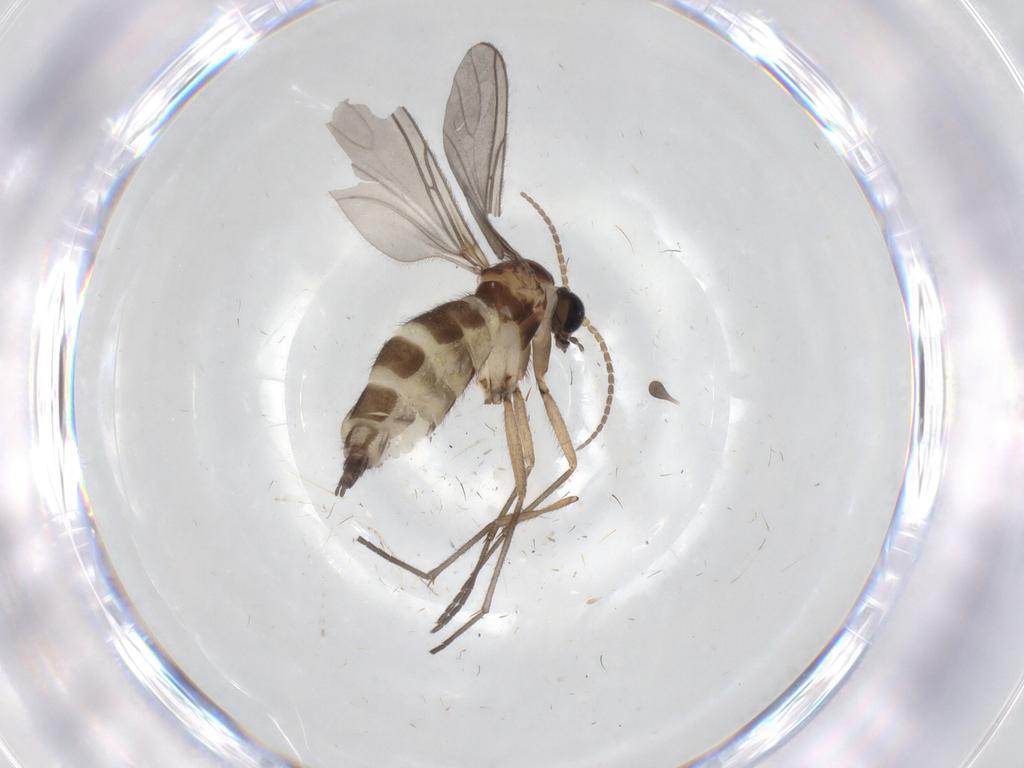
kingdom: Animalia
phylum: Arthropoda
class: Insecta
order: Diptera
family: Sciaridae
